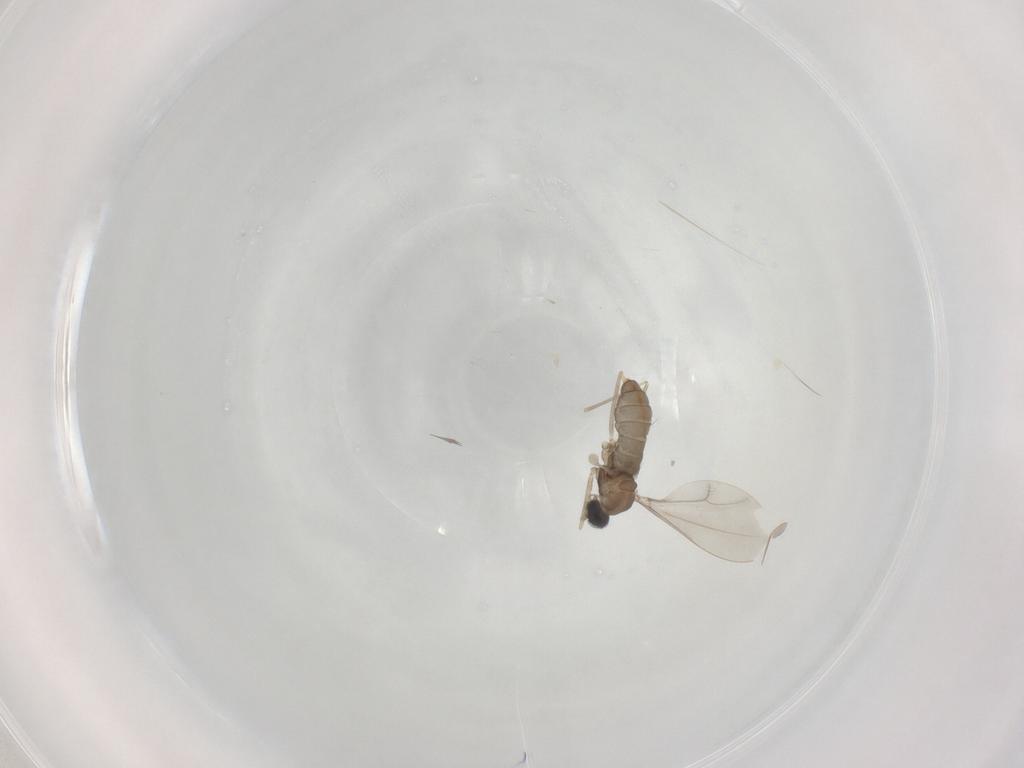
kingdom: Animalia
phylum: Arthropoda
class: Insecta
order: Diptera
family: Cecidomyiidae
